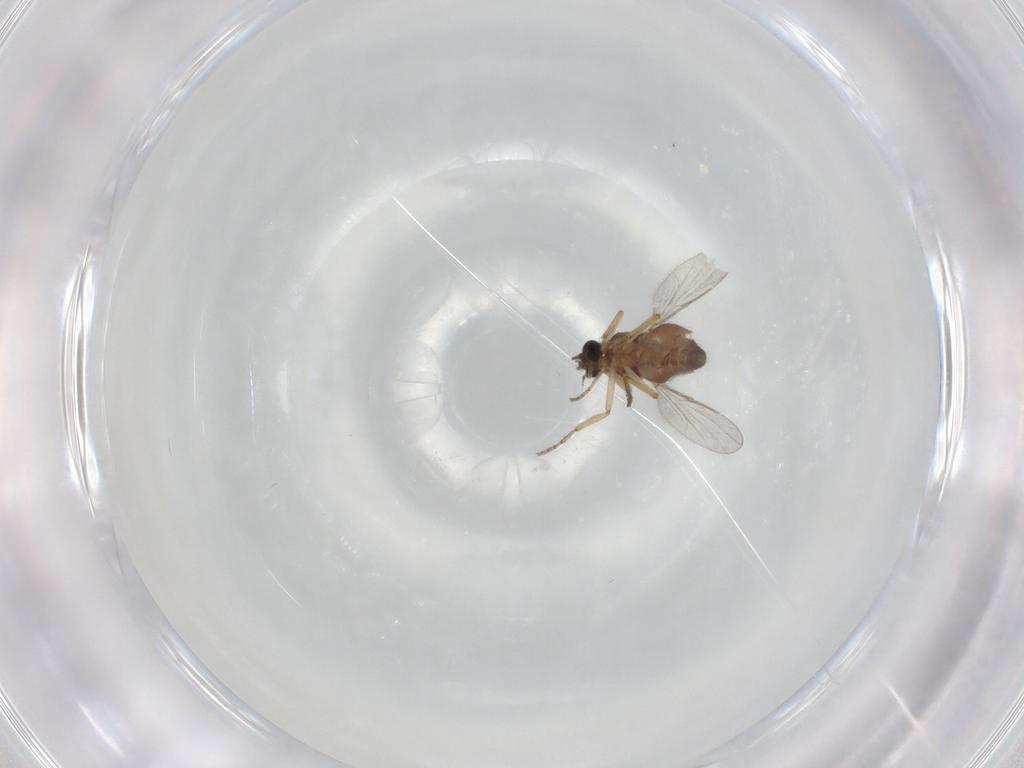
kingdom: Animalia
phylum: Arthropoda
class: Insecta
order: Diptera
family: Ceratopogonidae
